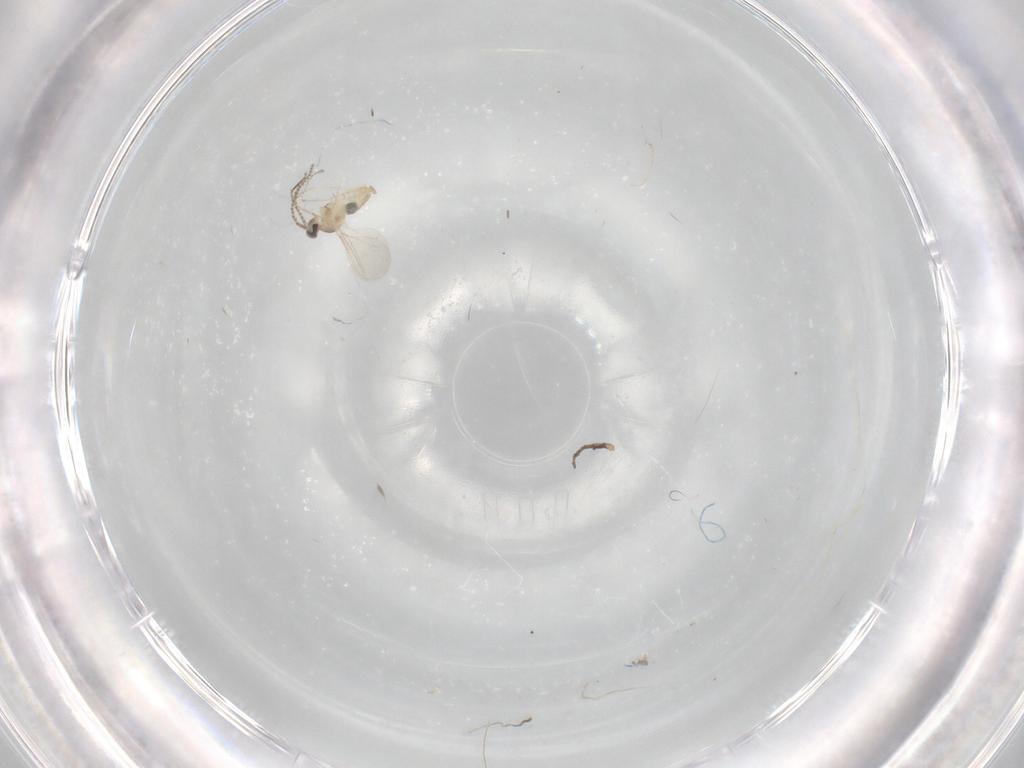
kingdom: Animalia
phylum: Arthropoda
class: Insecta
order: Diptera
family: Cecidomyiidae
